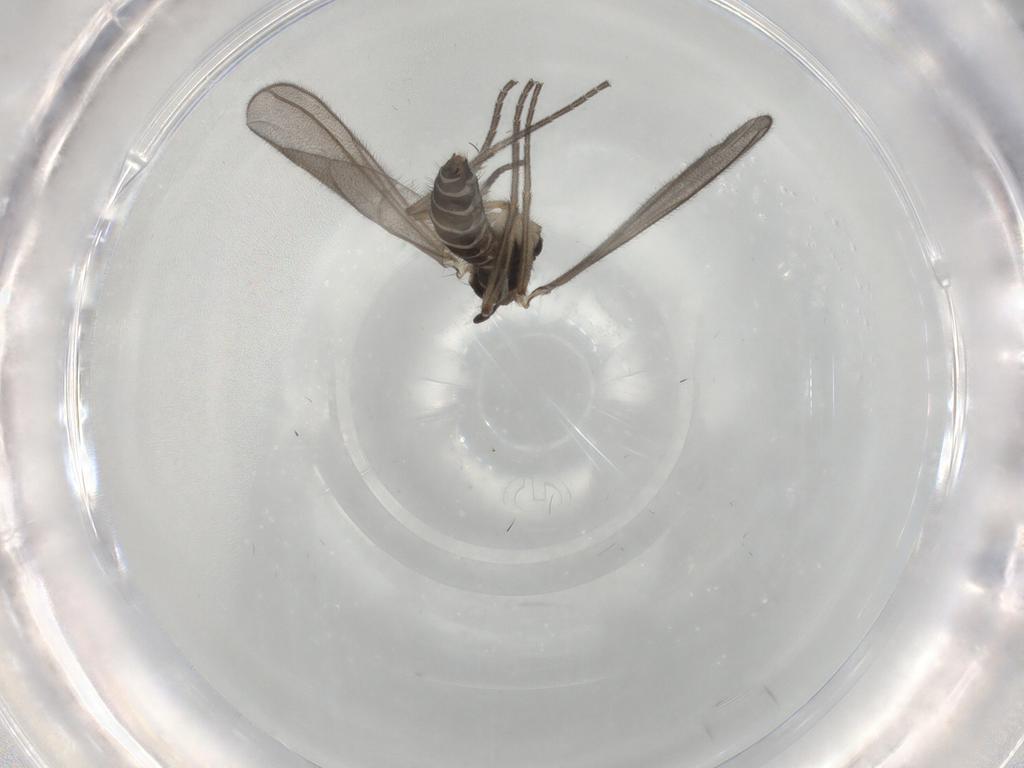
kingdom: Animalia
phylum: Arthropoda
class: Insecta
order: Diptera
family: Mycetophilidae
